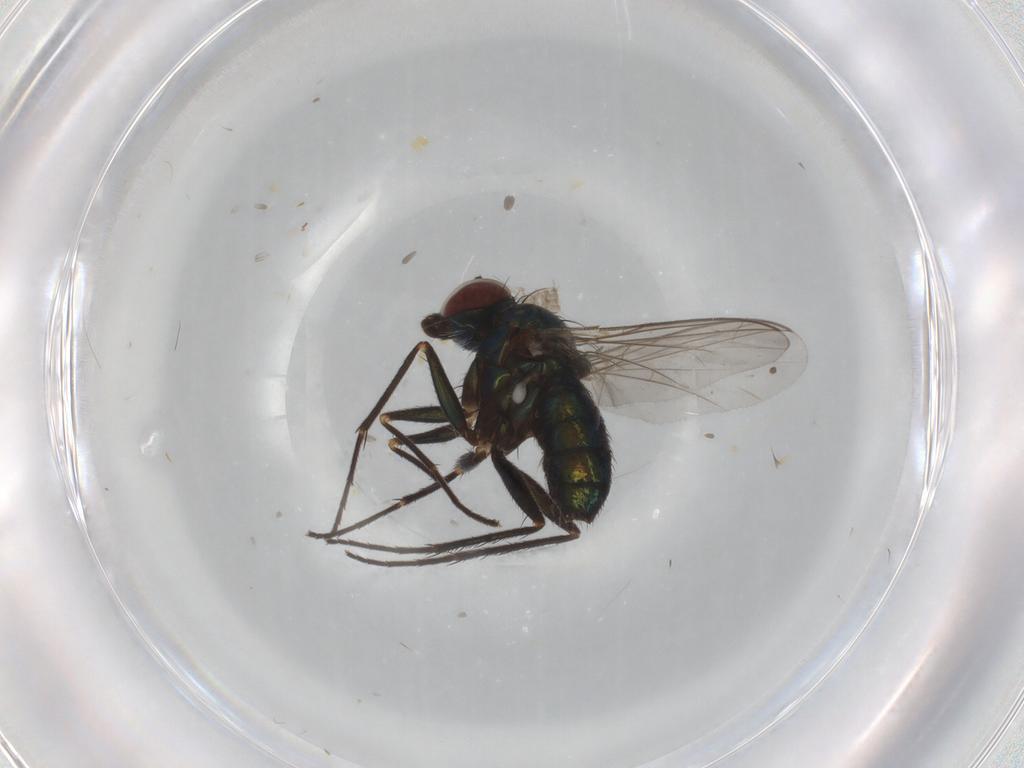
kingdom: Animalia
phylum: Arthropoda
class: Insecta
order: Diptera
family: Dolichopodidae
